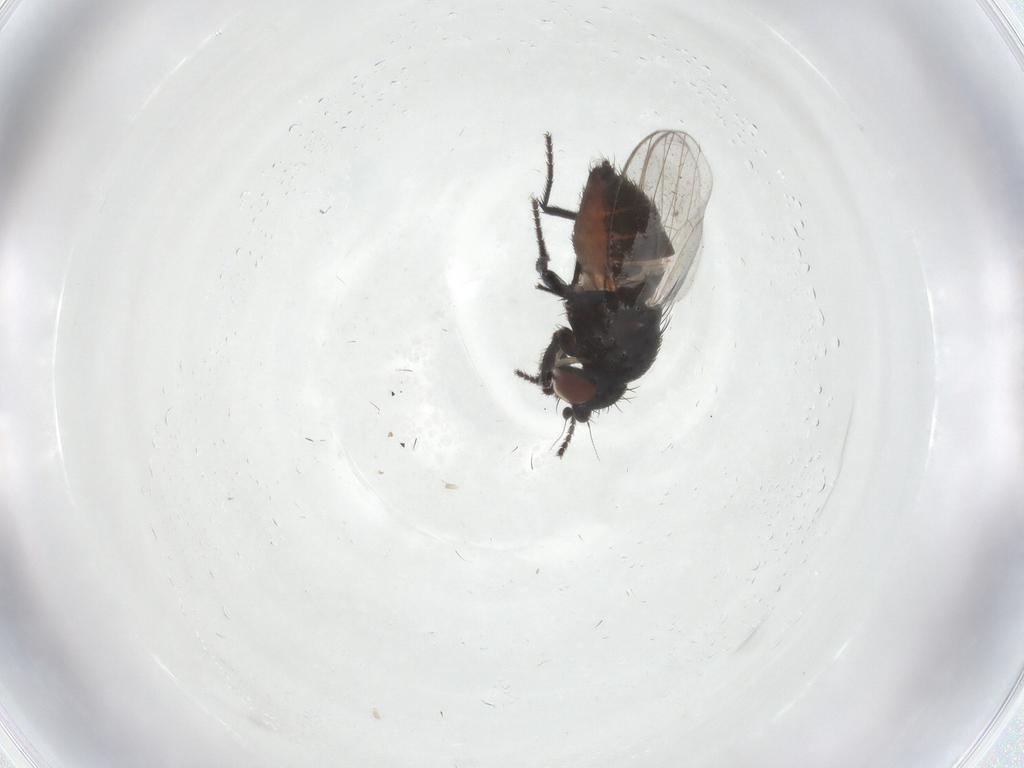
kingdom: Animalia
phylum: Arthropoda
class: Insecta
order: Diptera
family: Milichiidae
